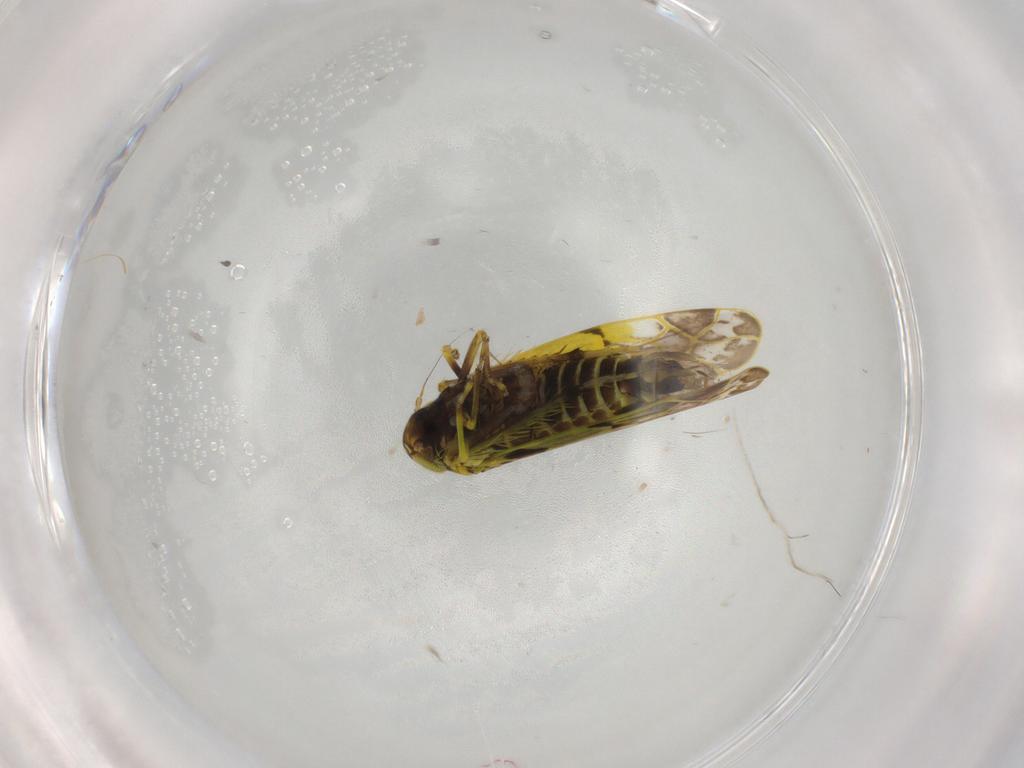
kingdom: Animalia
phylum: Arthropoda
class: Insecta
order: Hemiptera
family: Cicadellidae
